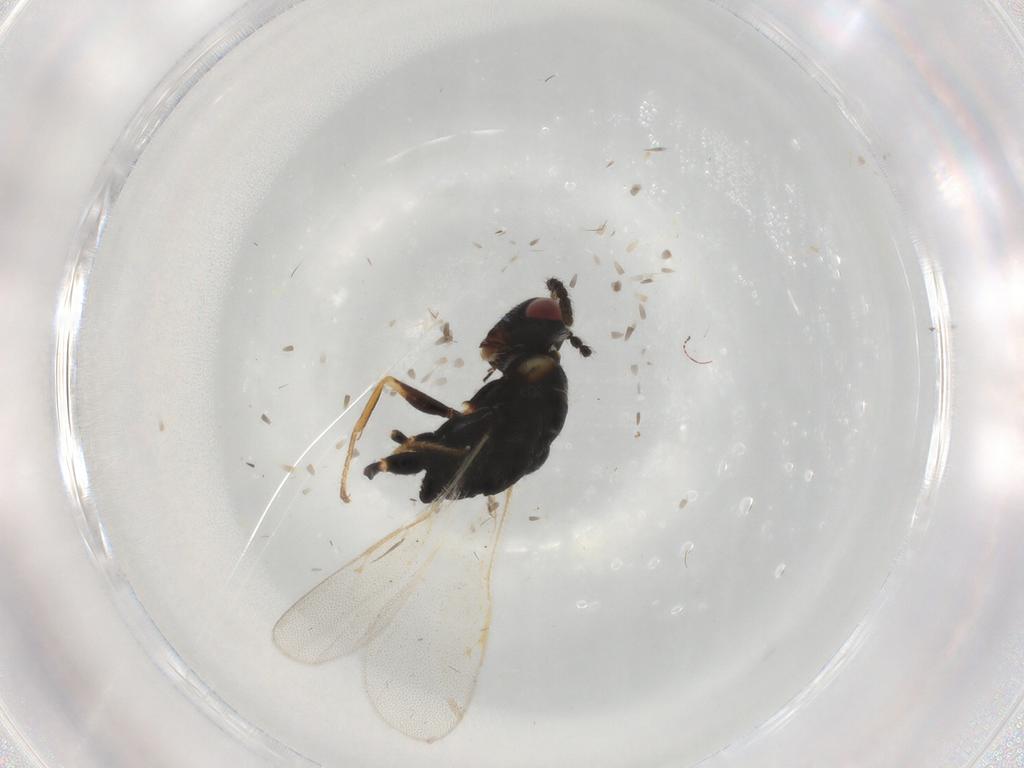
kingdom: Animalia
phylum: Arthropoda
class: Insecta
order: Hymenoptera
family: Eurytomidae
